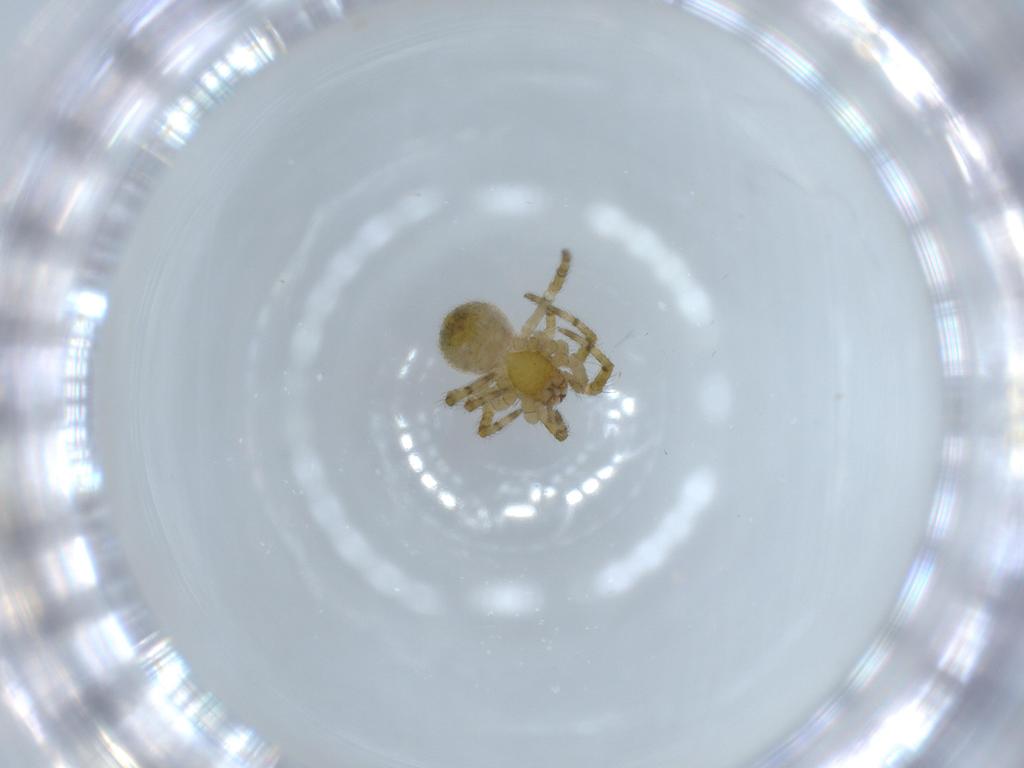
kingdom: Animalia
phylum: Arthropoda
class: Arachnida
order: Araneae
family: Araneidae
